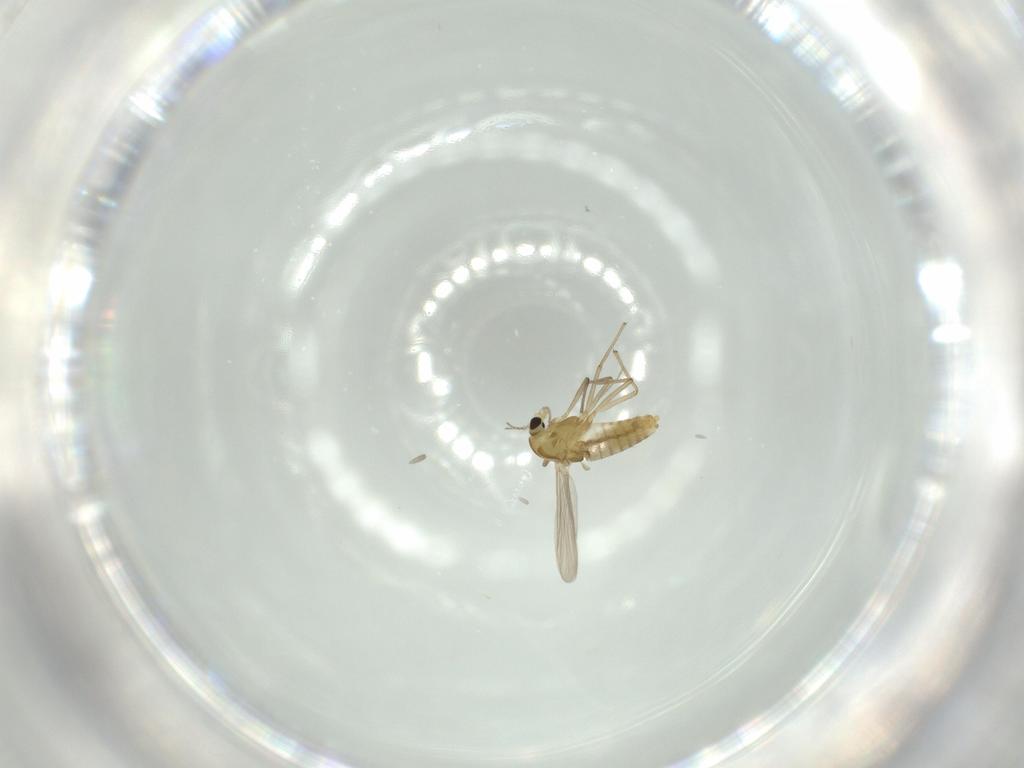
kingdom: Animalia
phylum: Arthropoda
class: Insecta
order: Diptera
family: Chironomidae
